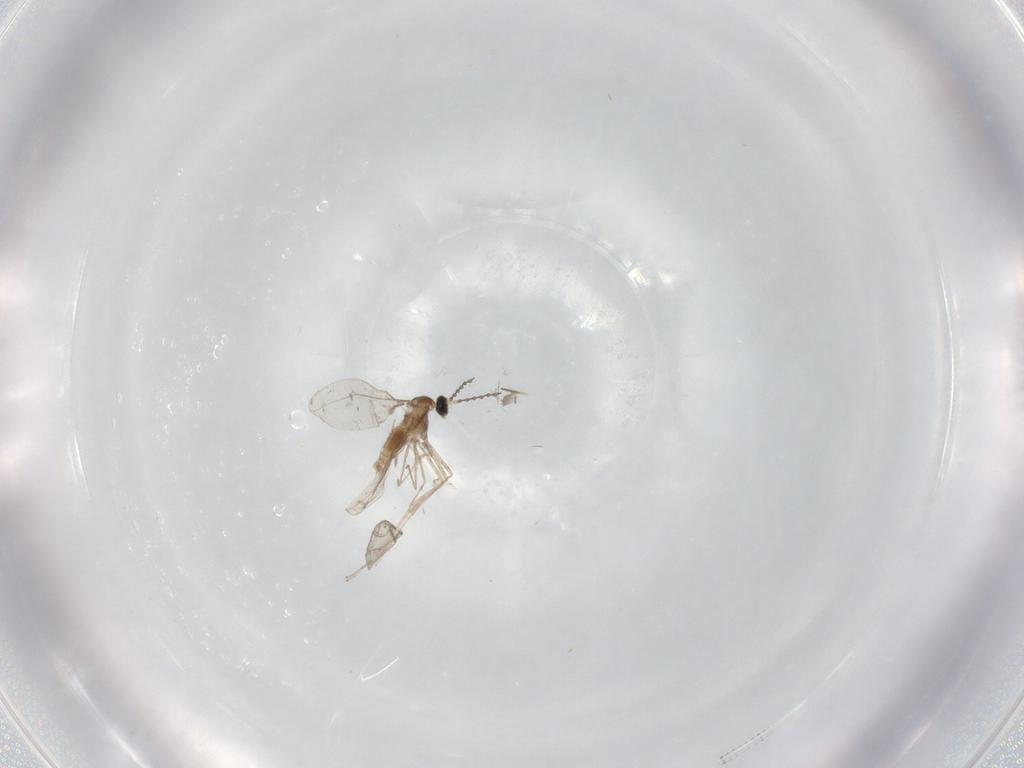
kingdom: Animalia
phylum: Arthropoda
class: Insecta
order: Diptera
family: Cecidomyiidae
